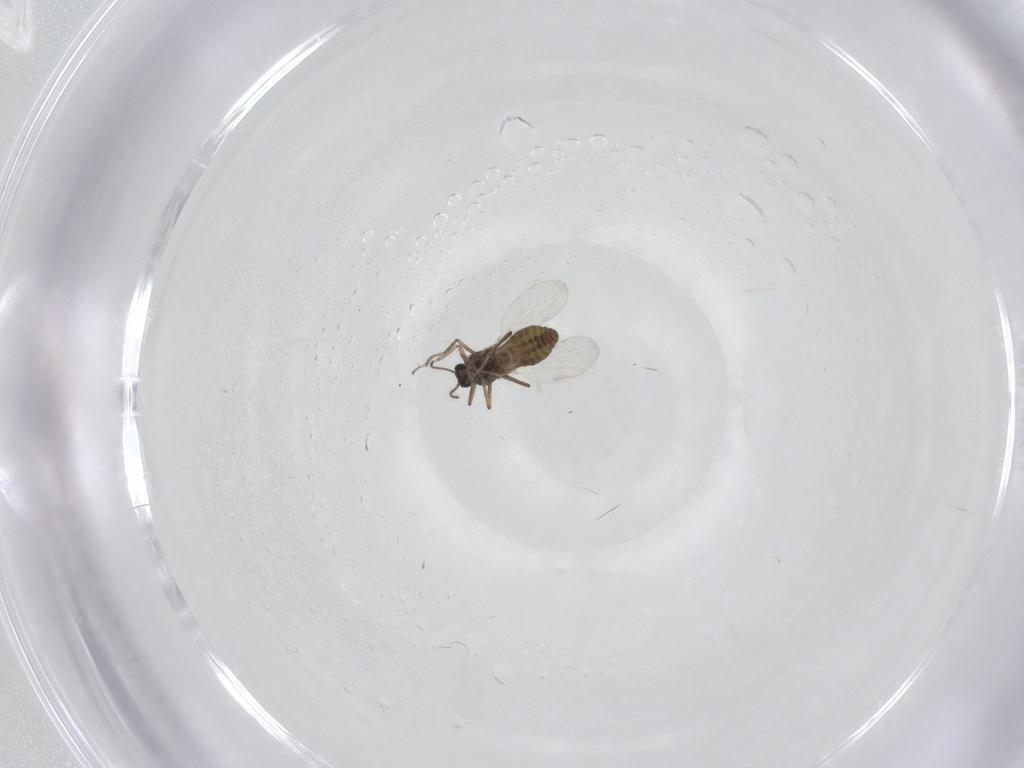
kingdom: Animalia
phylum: Arthropoda
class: Insecta
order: Diptera
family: Ceratopogonidae
